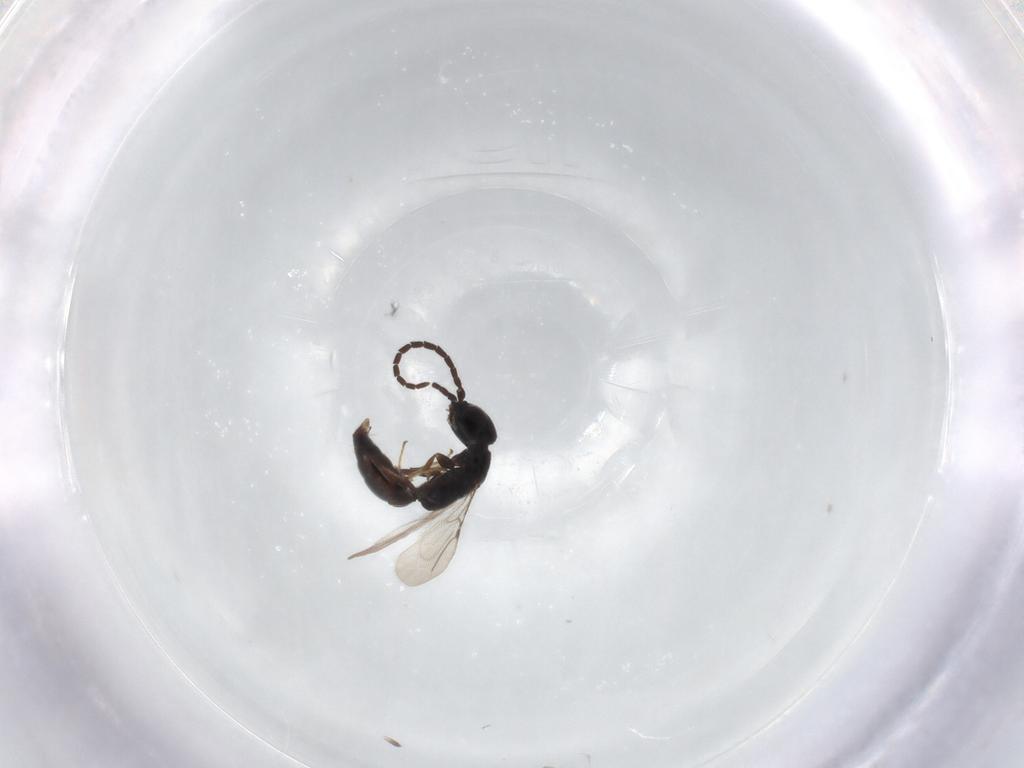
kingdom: Animalia
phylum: Arthropoda
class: Insecta
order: Hymenoptera
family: Bethylidae
